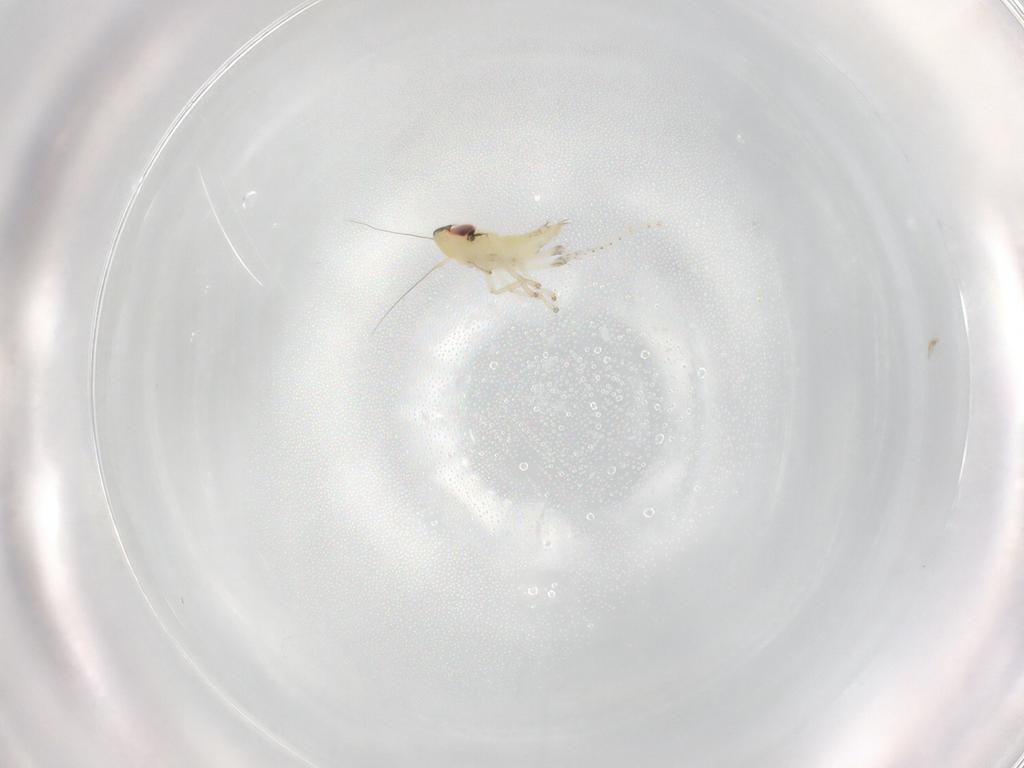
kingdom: Animalia
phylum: Arthropoda
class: Insecta
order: Hemiptera
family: Cicadellidae
